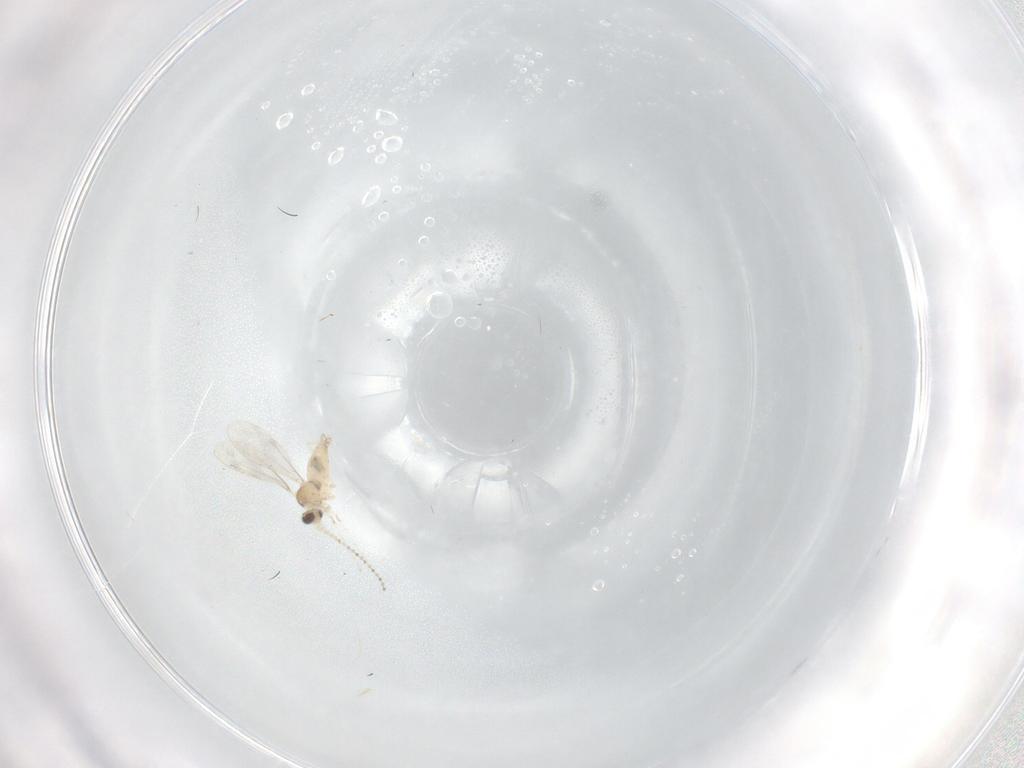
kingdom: Animalia
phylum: Arthropoda
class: Insecta
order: Diptera
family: Cecidomyiidae
